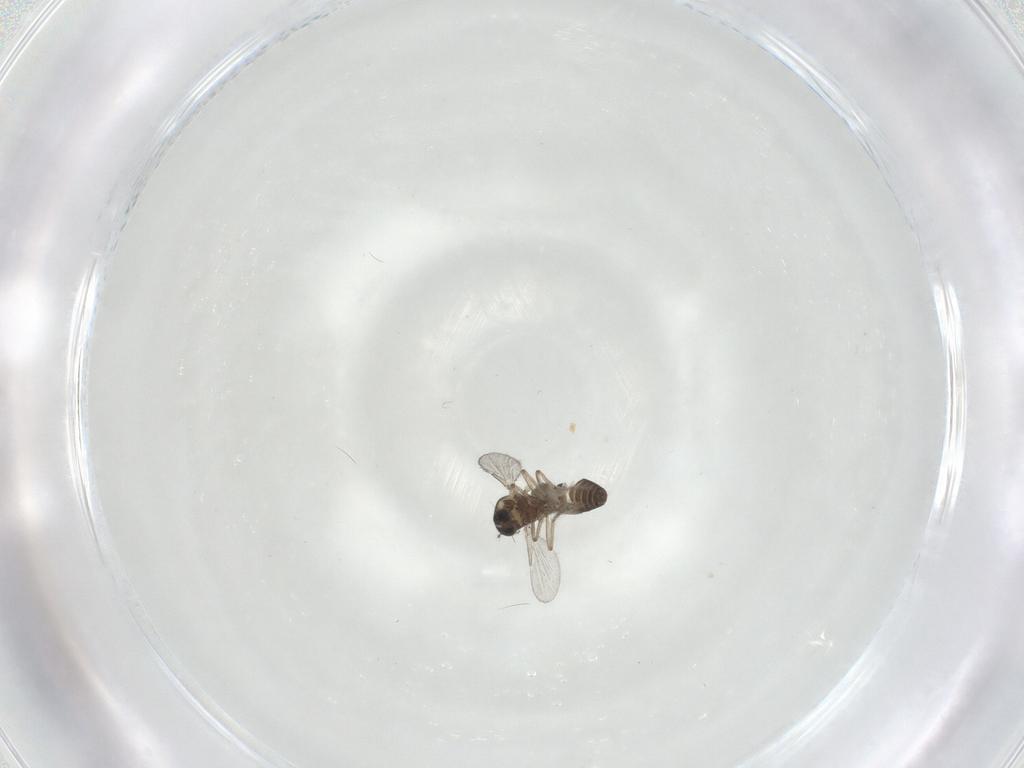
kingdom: Animalia
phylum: Arthropoda
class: Insecta
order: Diptera
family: Ceratopogonidae
